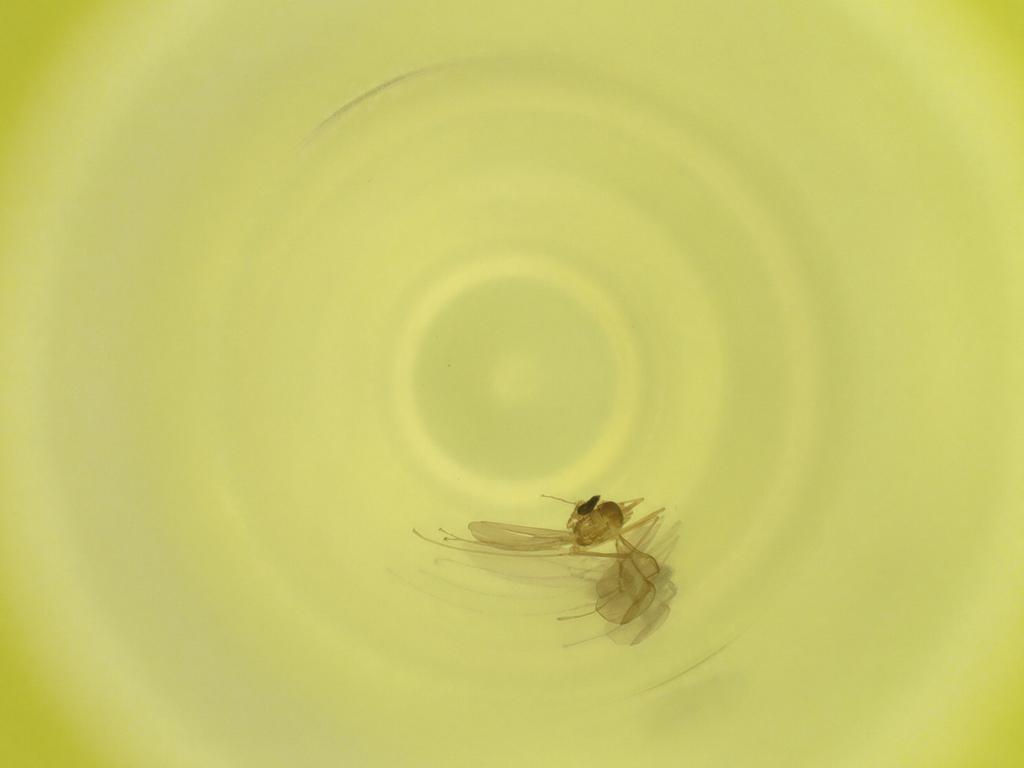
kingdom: Animalia
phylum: Arthropoda
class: Insecta
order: Diptera
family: Cecidomyiidae
